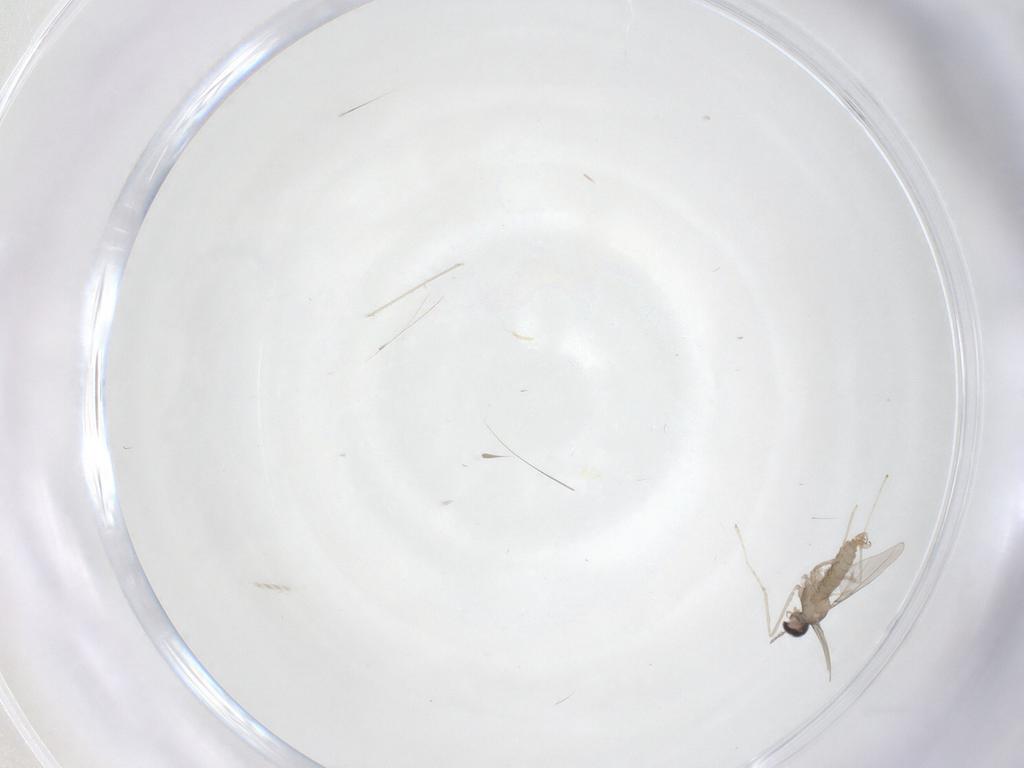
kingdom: Animalia
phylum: Arthropoda
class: Insecta
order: Diptera
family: Cecidomyiidae
